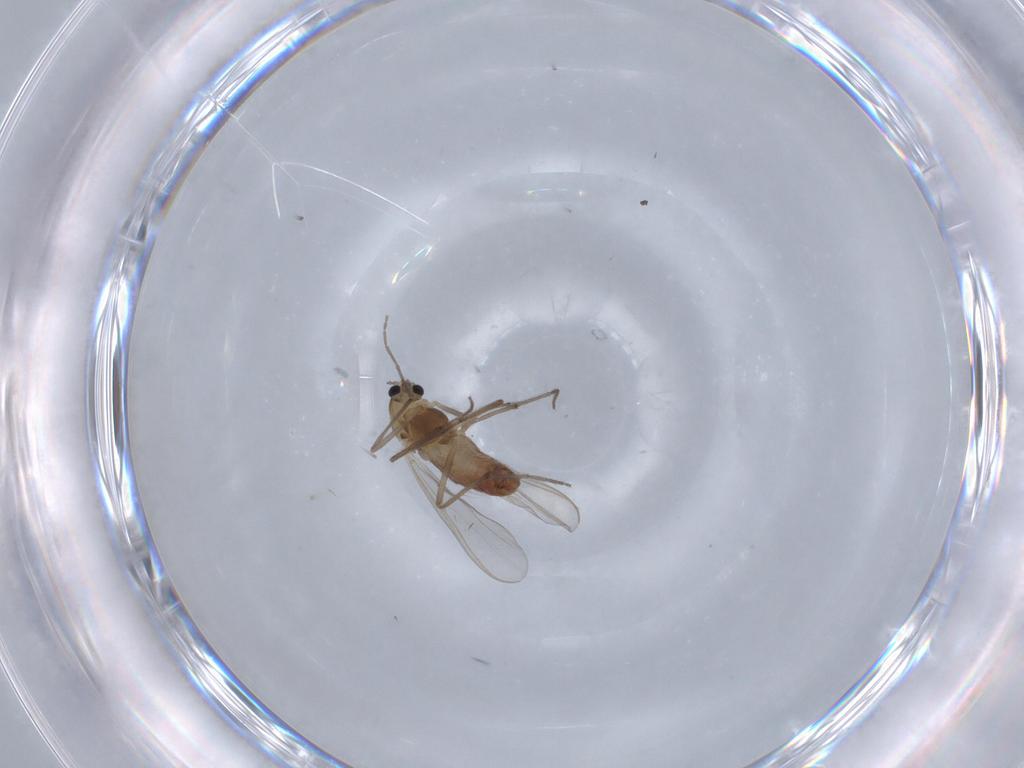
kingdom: Animalia
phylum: Arthropoda
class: Insecta
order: Diptera
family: Chironomidae
